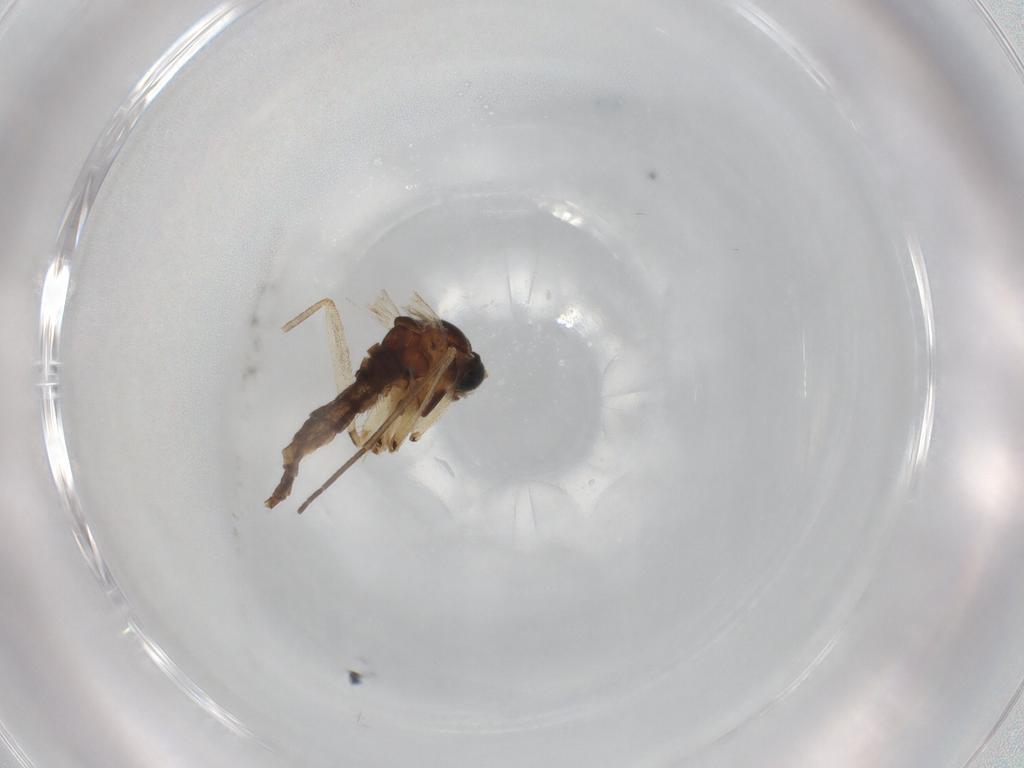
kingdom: Animalia
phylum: Arthropoda
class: Insecta
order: Diptera
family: Sciaridae
